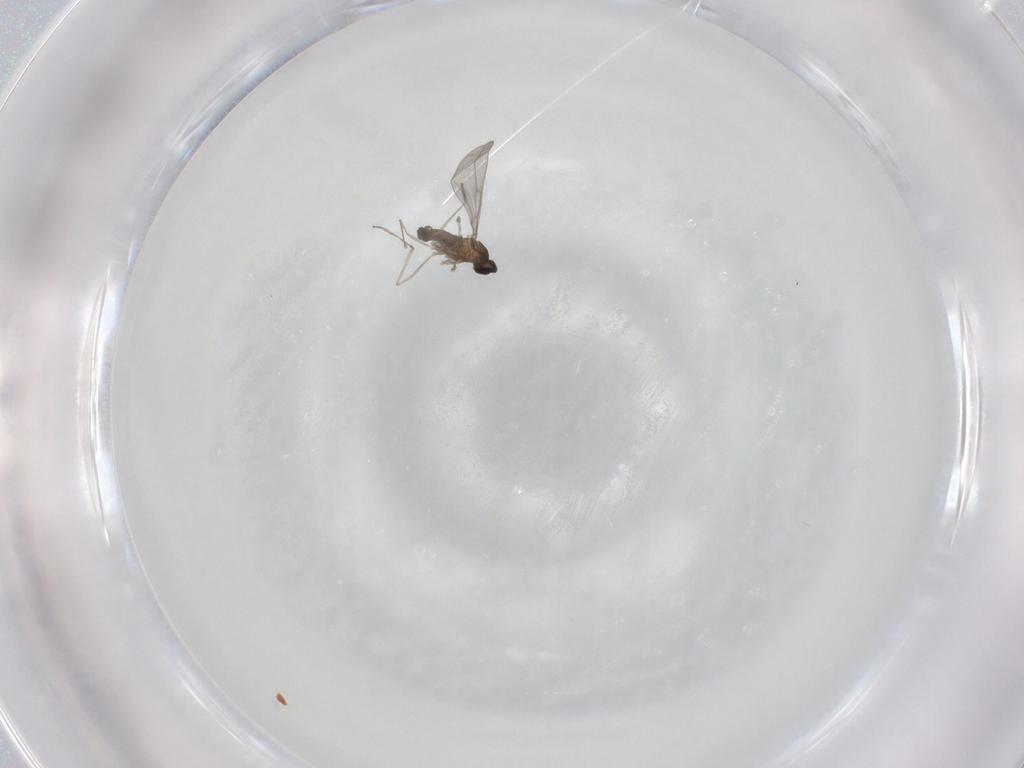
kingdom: Animalia
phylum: Arthropoda
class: Insecta
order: Diptera
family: Cecidomyiidae
